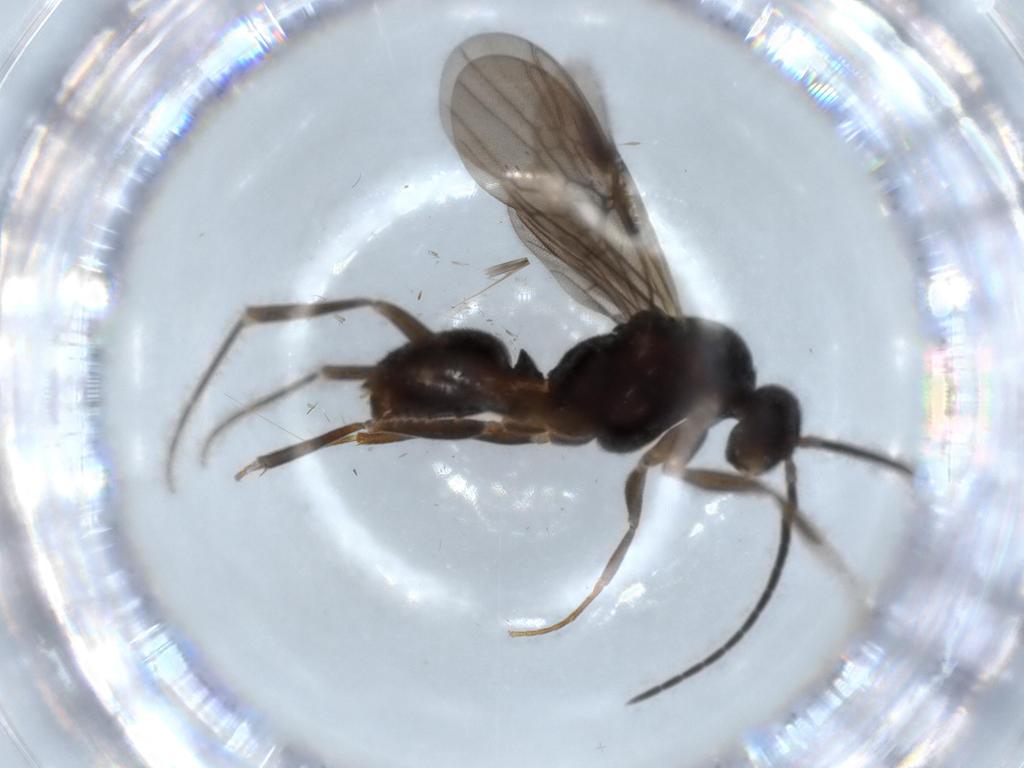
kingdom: Animalia
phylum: Arthropoda
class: Insecta
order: Hymenoptera
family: Formicidae
